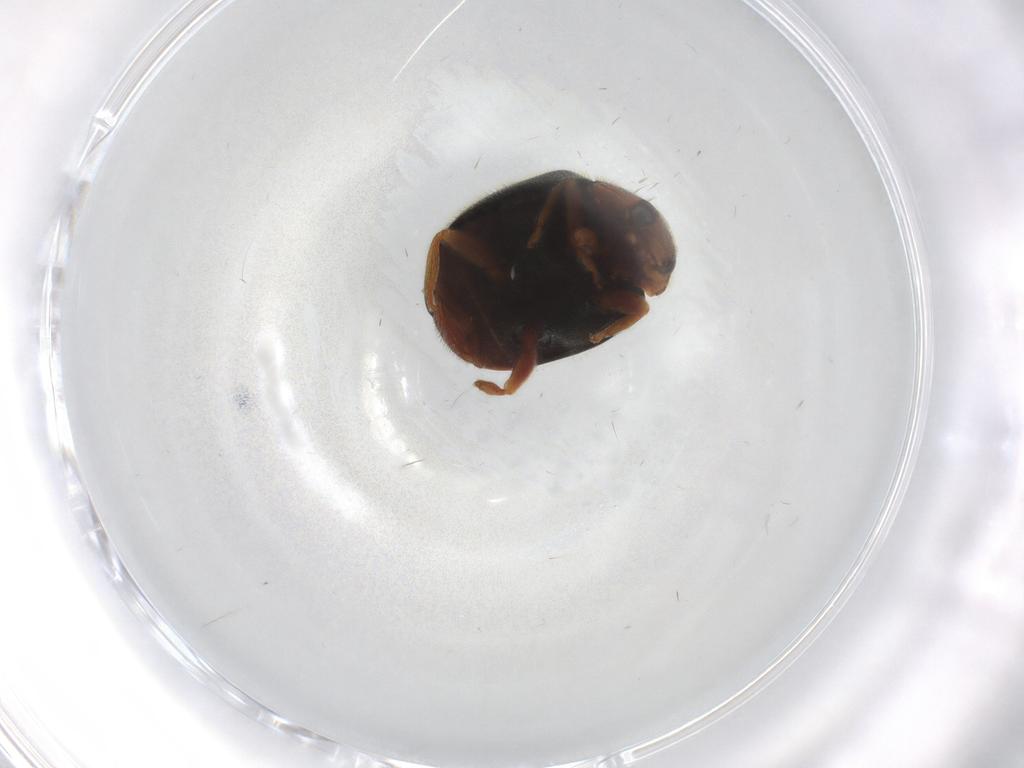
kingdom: Animalia
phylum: Arthropoda
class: Insecta
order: Coleoptera
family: Coccinellidae
